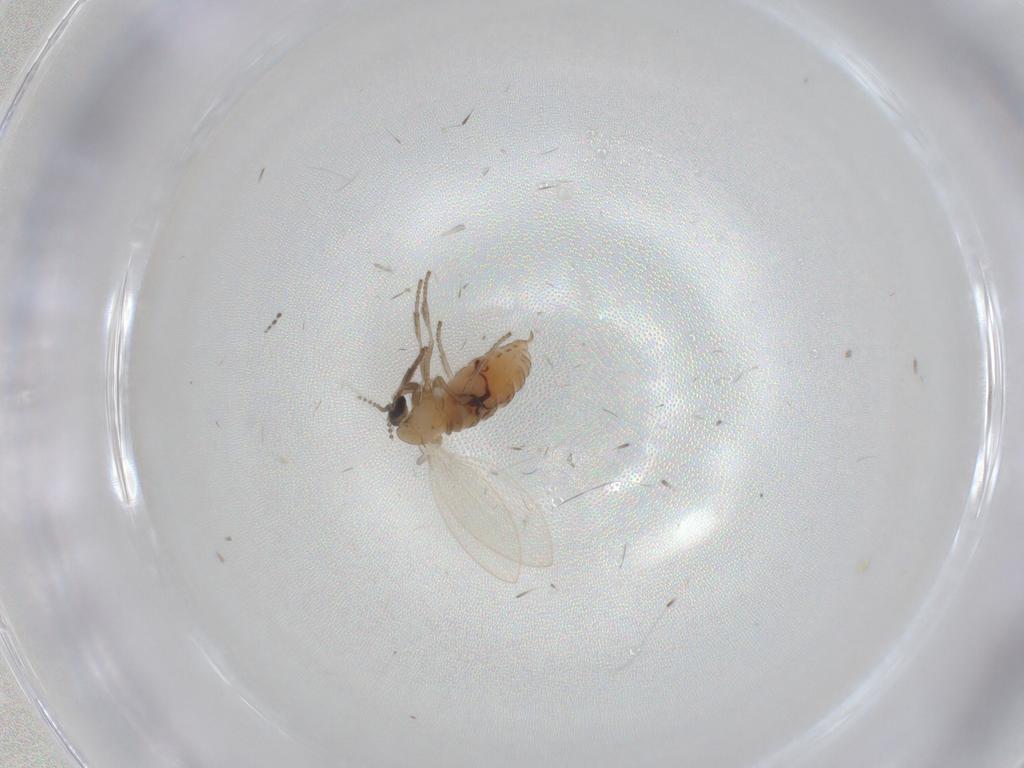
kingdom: Animalia
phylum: Arthropoda
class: Insecta
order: Diptera
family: Psychodidae
